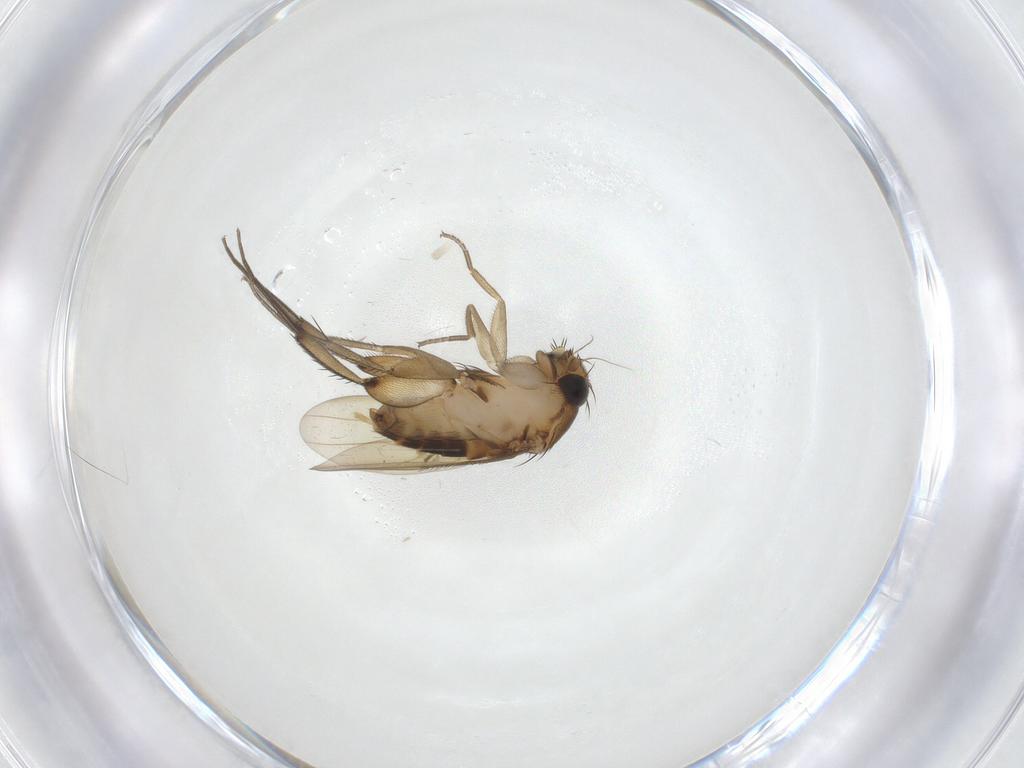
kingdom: Animalia
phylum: Arthropoda
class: Insecta
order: Diptera
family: Phoridae
